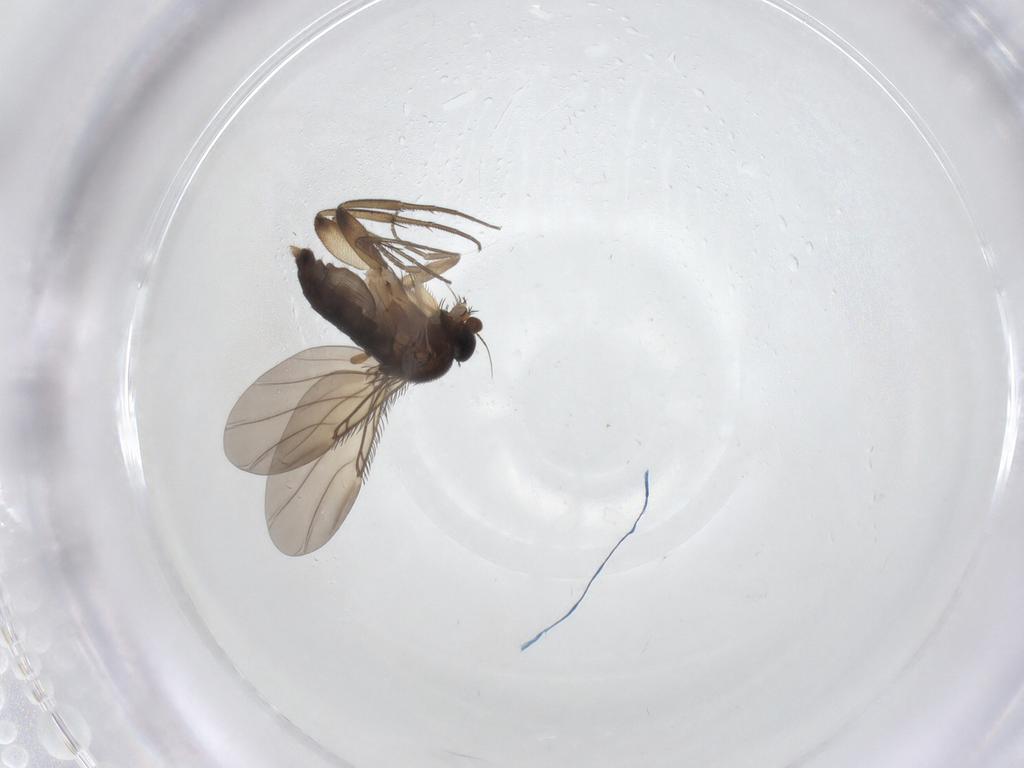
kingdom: Animalia
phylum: Arthropoda
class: Insecta
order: Diptera
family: Phoridae
